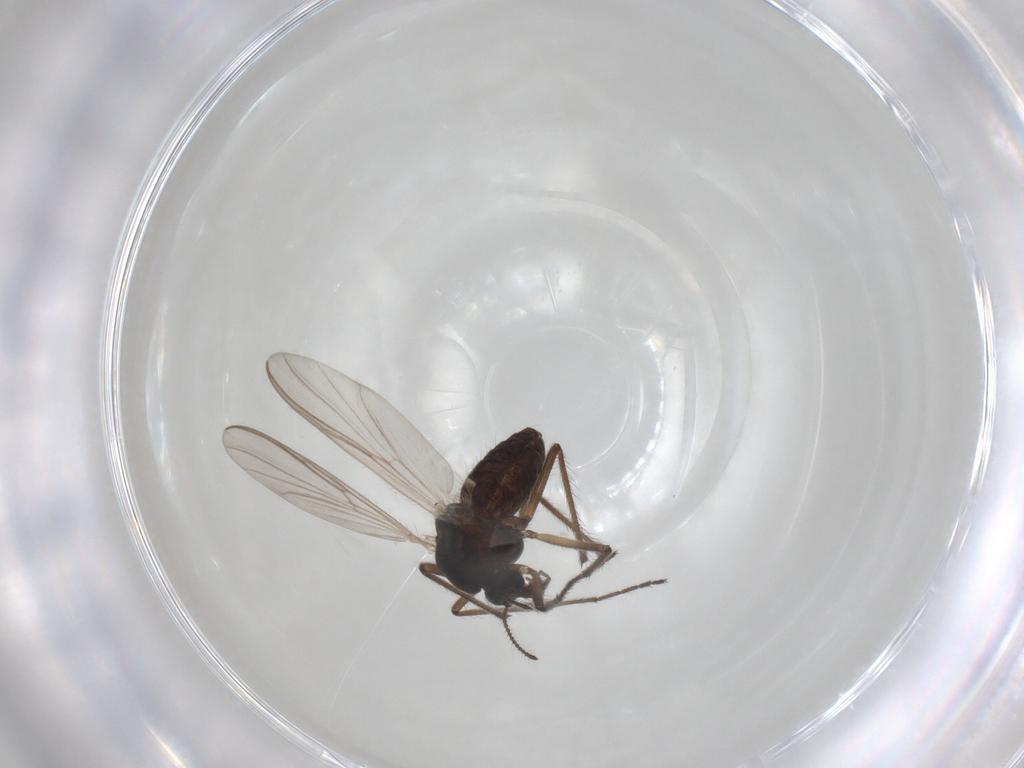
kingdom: Animalia
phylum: Arthropoda
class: Insecta
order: Diptera
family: Chironomidae
